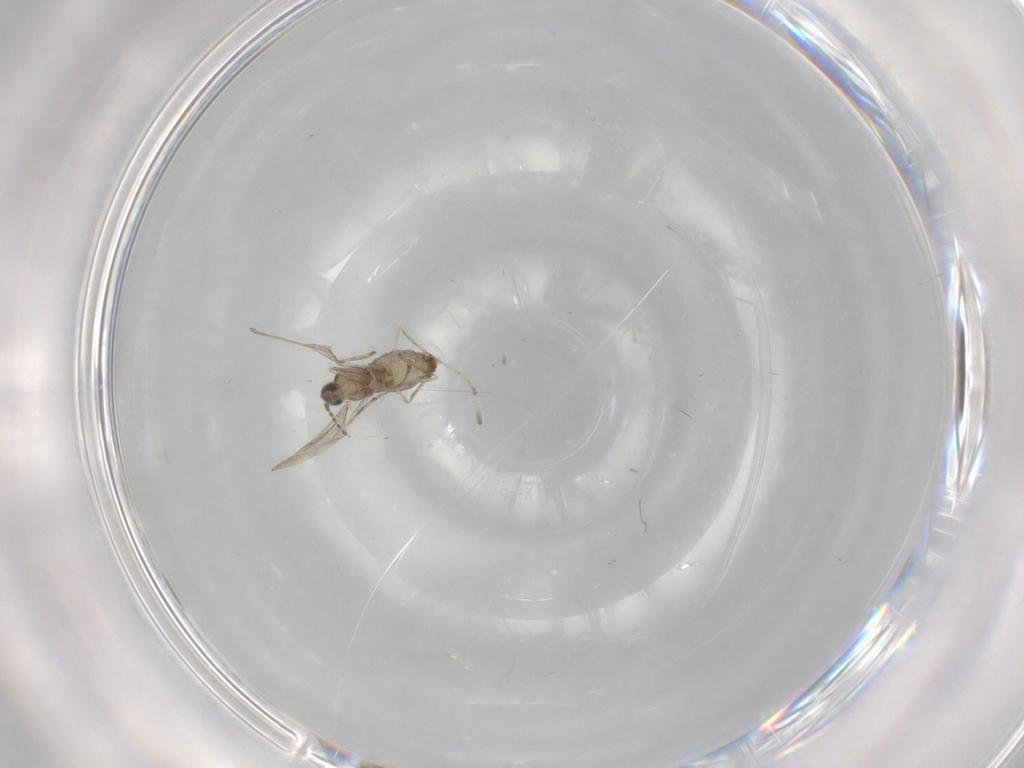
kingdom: Animalia
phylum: Arthropoda
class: Insecta
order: Diptera
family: Cecidomyiidae
